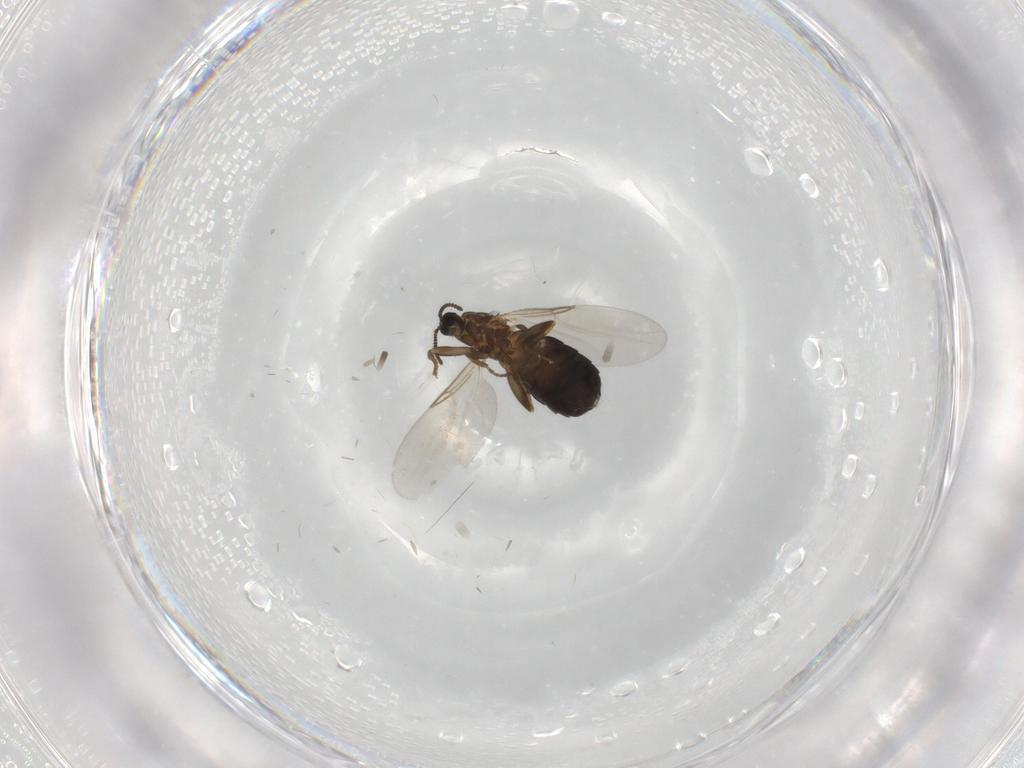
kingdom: Animalia
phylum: Arthropoda
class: Insecta
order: Diptera
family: Scatopsidae
